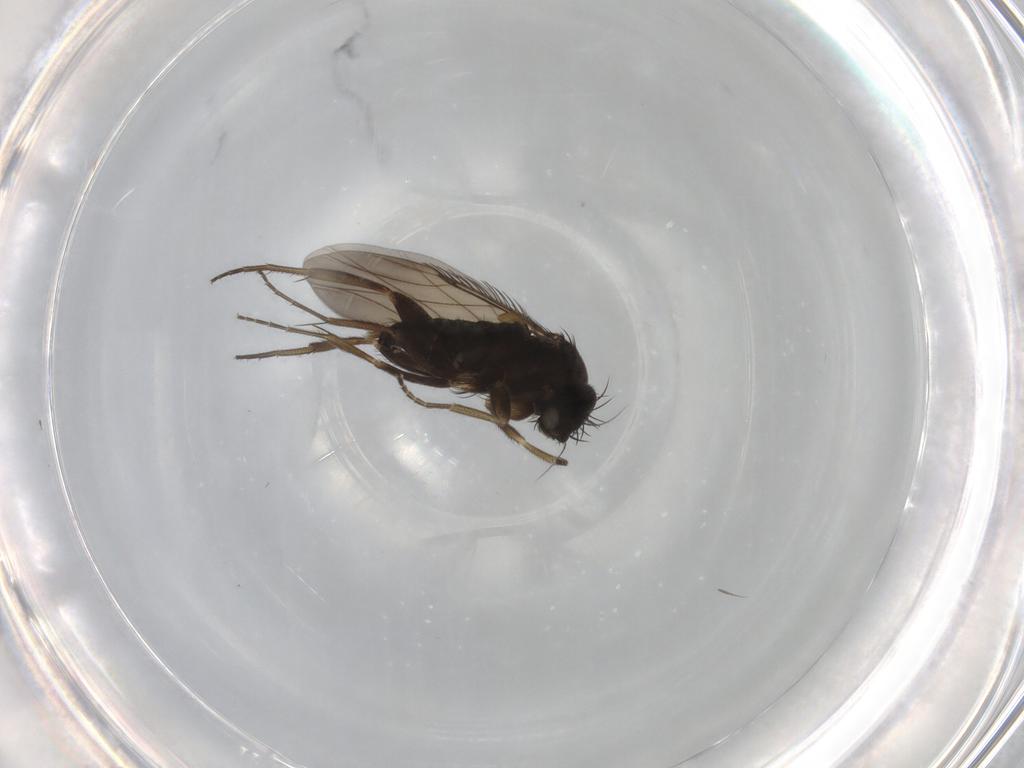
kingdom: Animalia
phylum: Arthropoda
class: Insecta
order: Diptera
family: Phoridae
